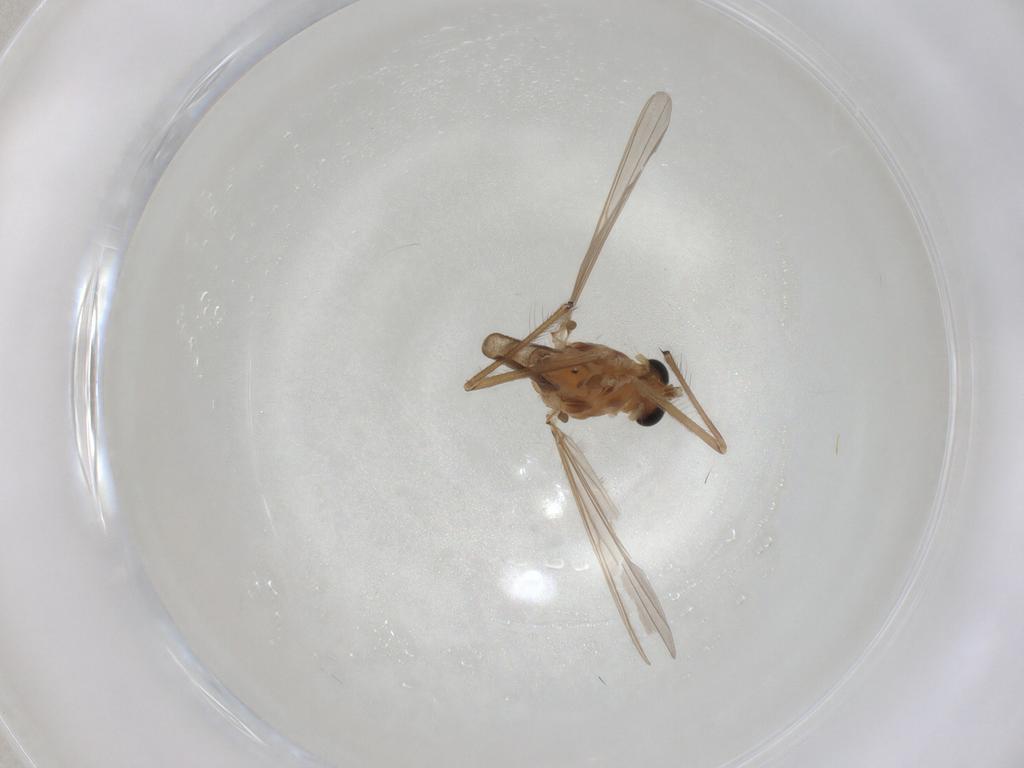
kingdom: Animalia
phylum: Arthropoda
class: Insecta
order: Diptera
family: Chironomidae
